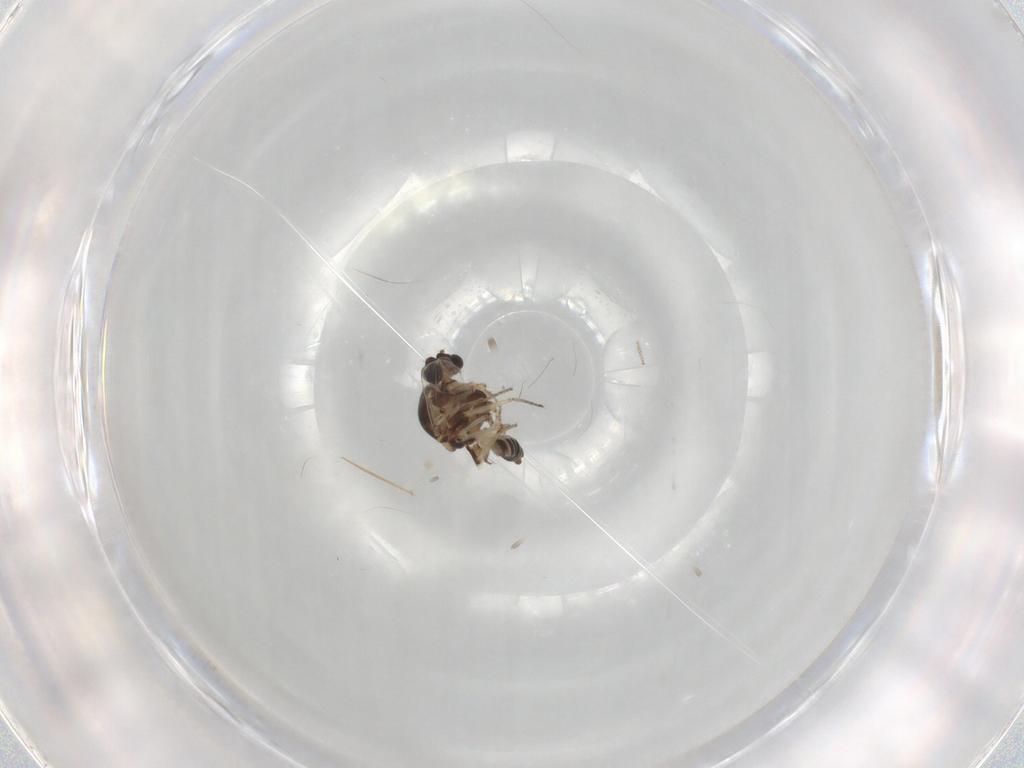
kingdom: Animalia
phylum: Arthropoda
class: Insecta
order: Diptera
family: Ceratopogonidae
